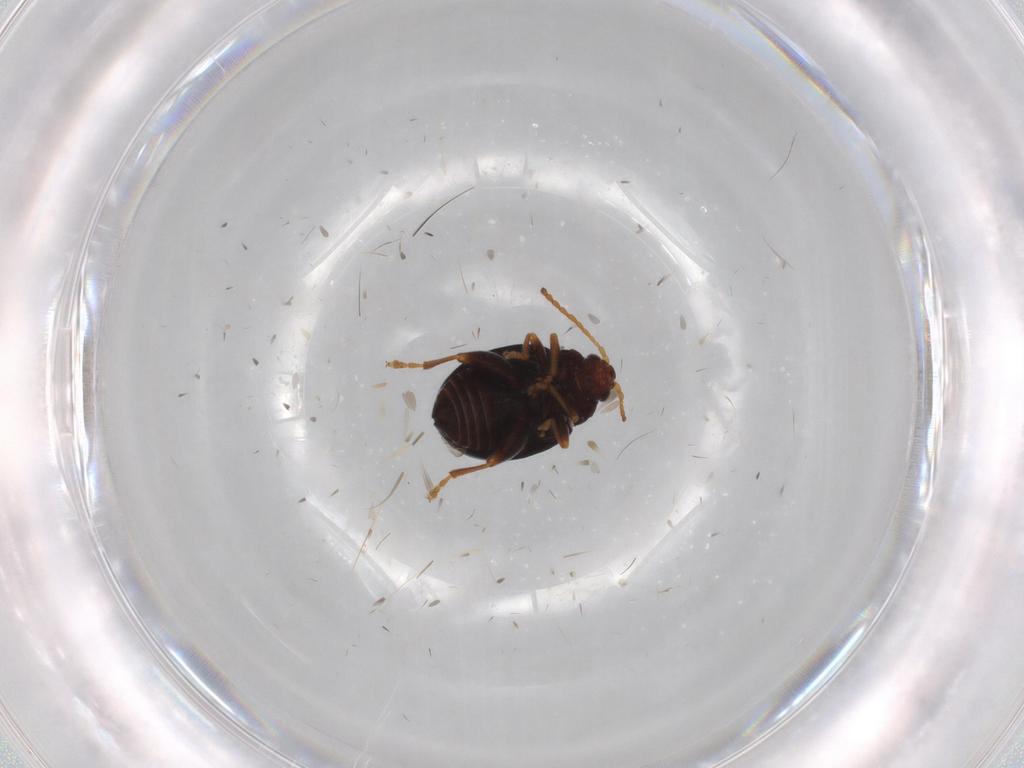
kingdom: Animalia
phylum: Arthropoda
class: Insecta
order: Coleoptera
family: Chrysomelidae
